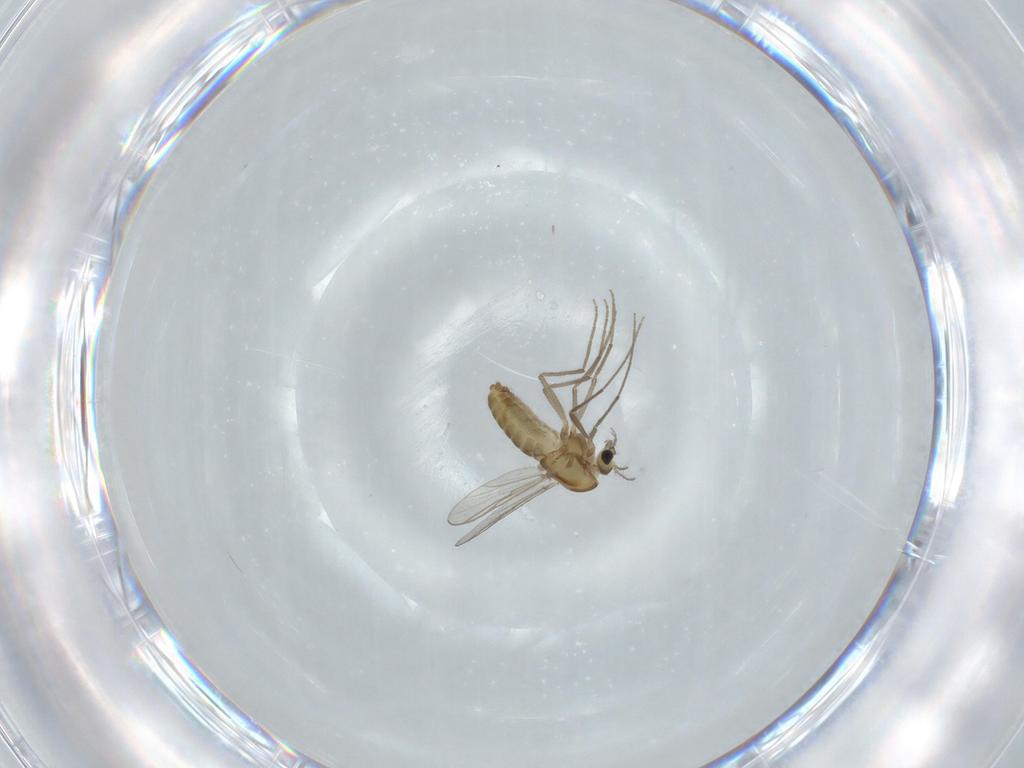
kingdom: Animalia
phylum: Arthropoda
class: Insecta
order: Diptera
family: Chironomidae
